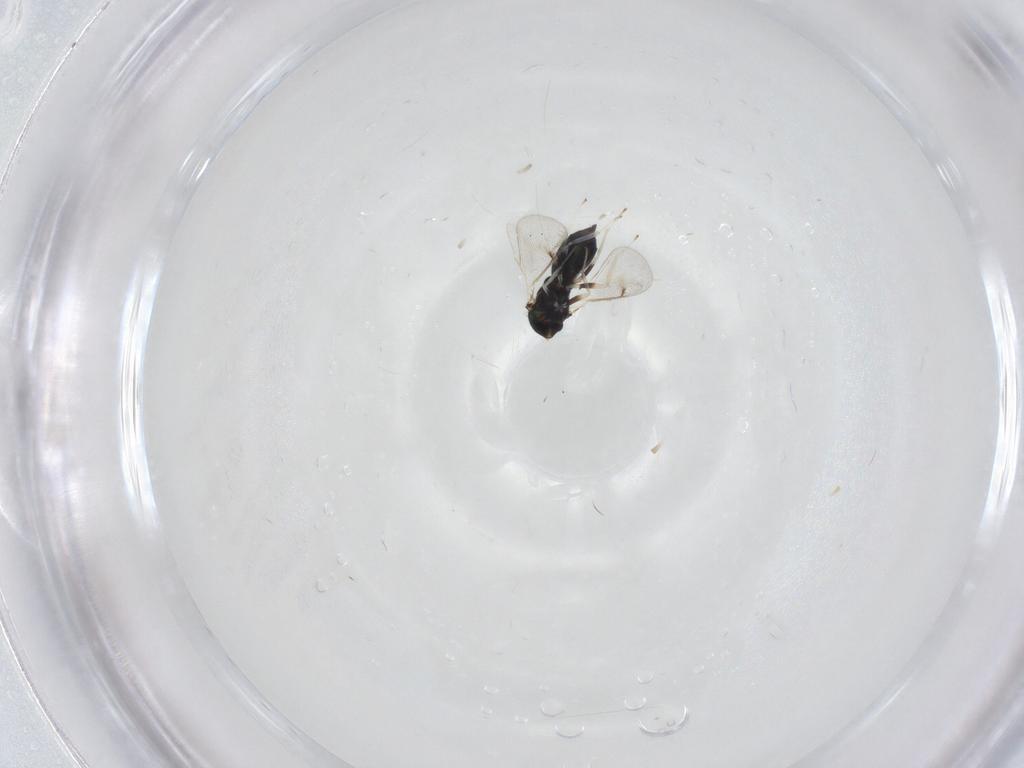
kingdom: Animalia
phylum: Arthropoda
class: Insecta
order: Hymenoptera
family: Eulophidae
